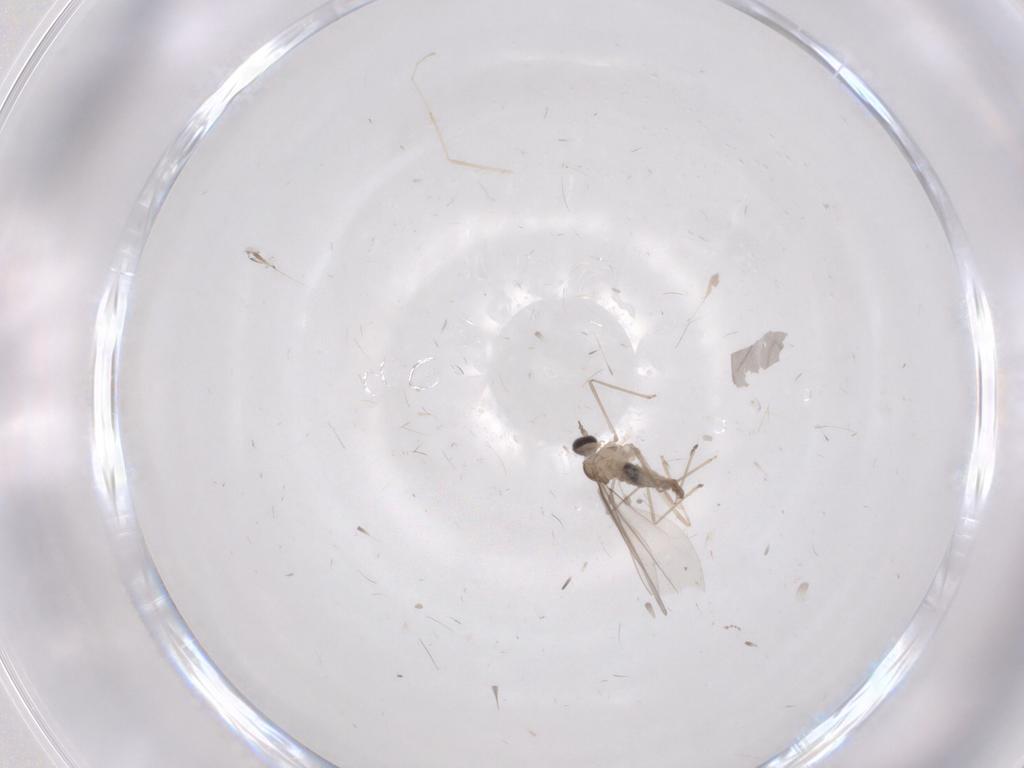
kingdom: Animalia
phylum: Arthropoda
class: Insecta
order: Diptera
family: Cecidomyiidae
